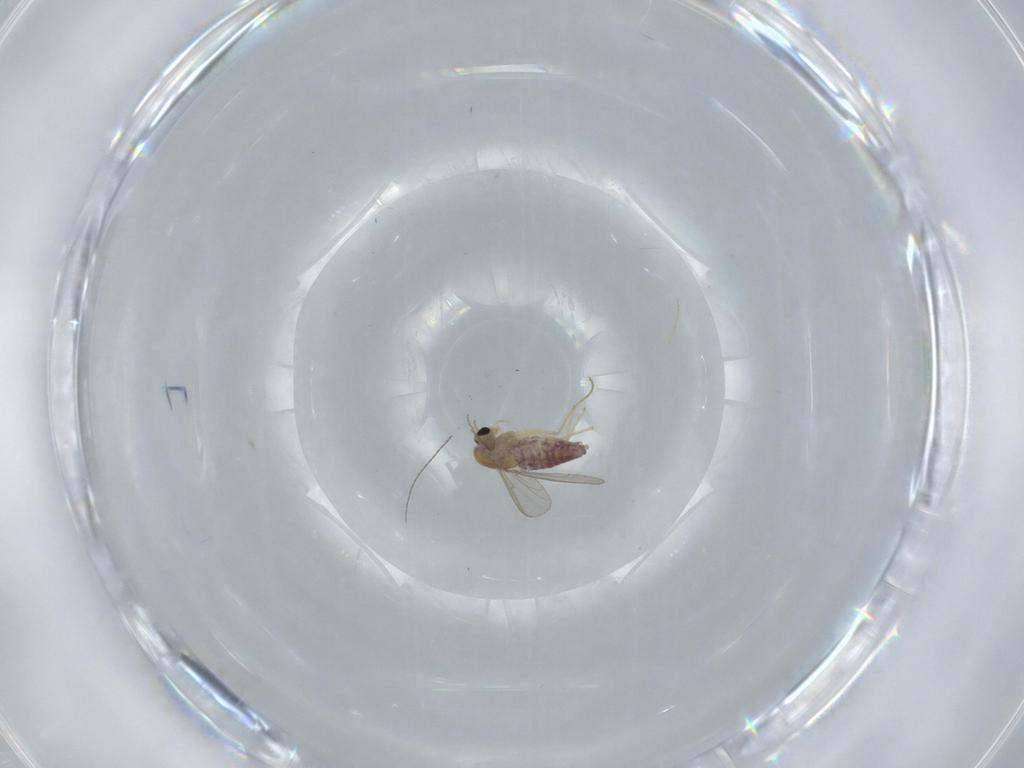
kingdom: Animalia
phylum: Arthropoda
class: Insecta
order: Diptera
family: Chironomidae
